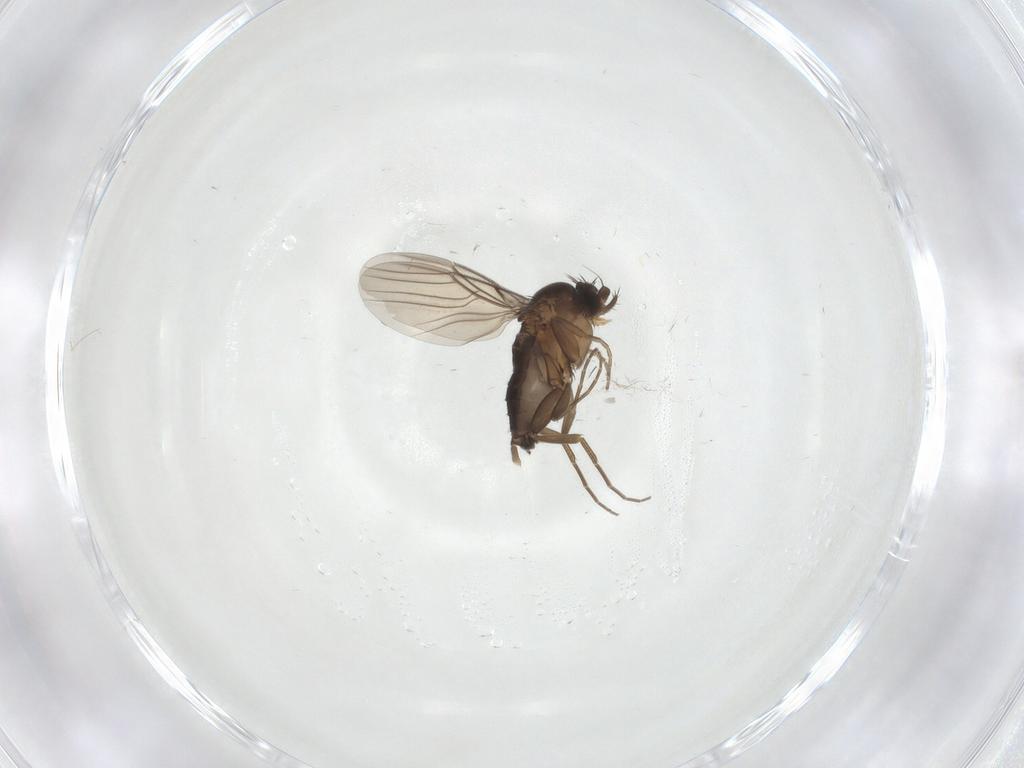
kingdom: Animalia
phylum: Arthropoda
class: Insecta
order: Diptera
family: Phoridae
